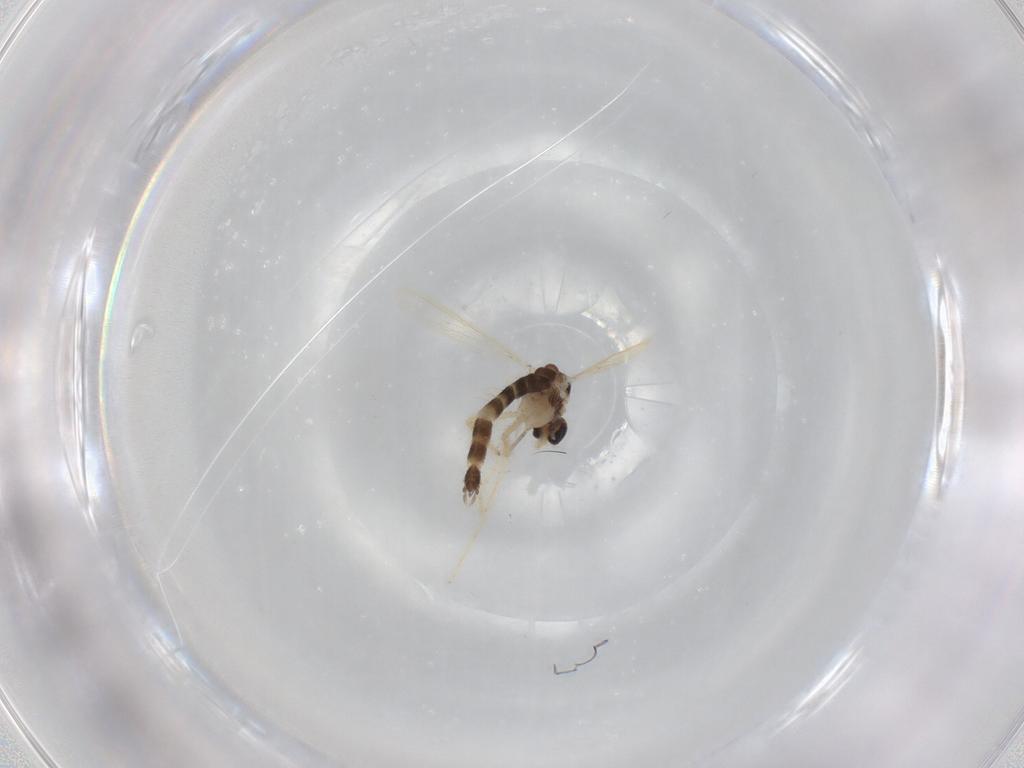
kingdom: Animalia
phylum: Arthropoda
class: Insecta
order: Diptera
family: Chironomidae
